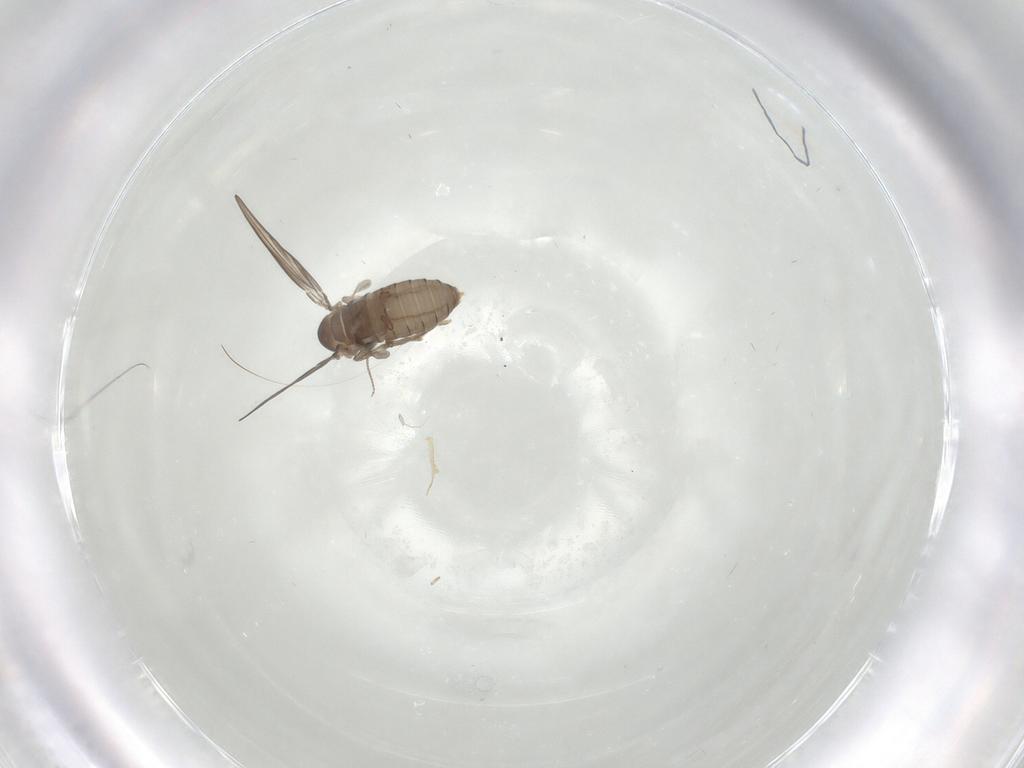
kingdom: Animalia
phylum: Arthropoda
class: Insecta
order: Diptera
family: Psychodidae
